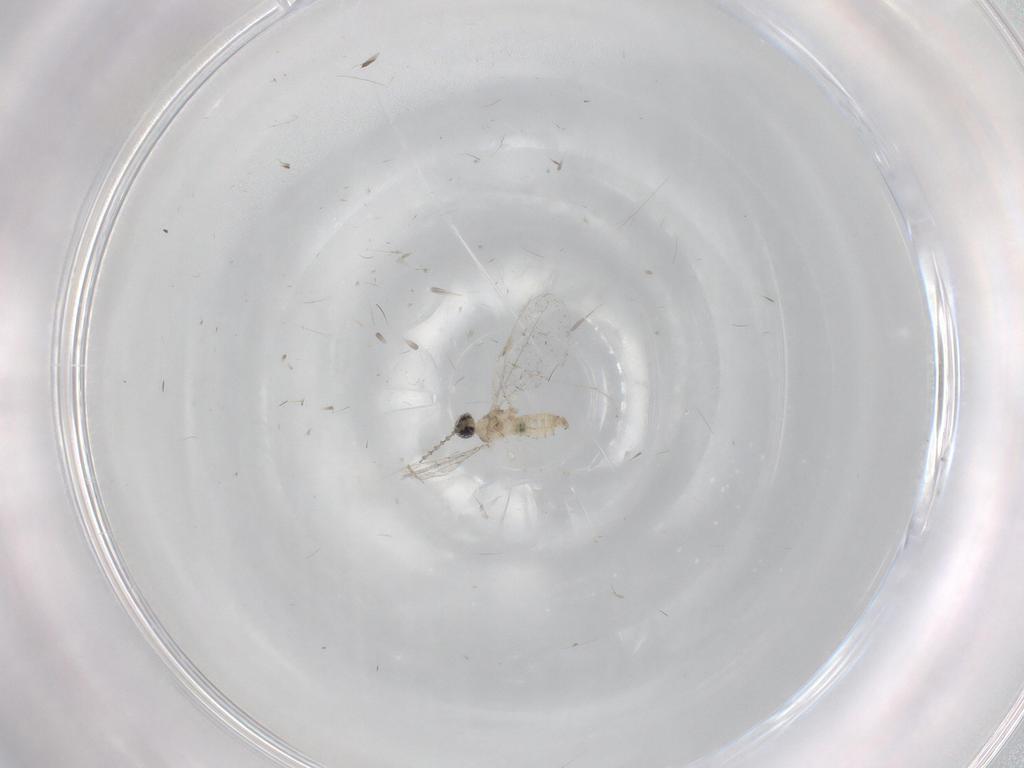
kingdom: Animalia
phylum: Arthropoda
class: Insecta
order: Diptera
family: Cecidomyiidae
